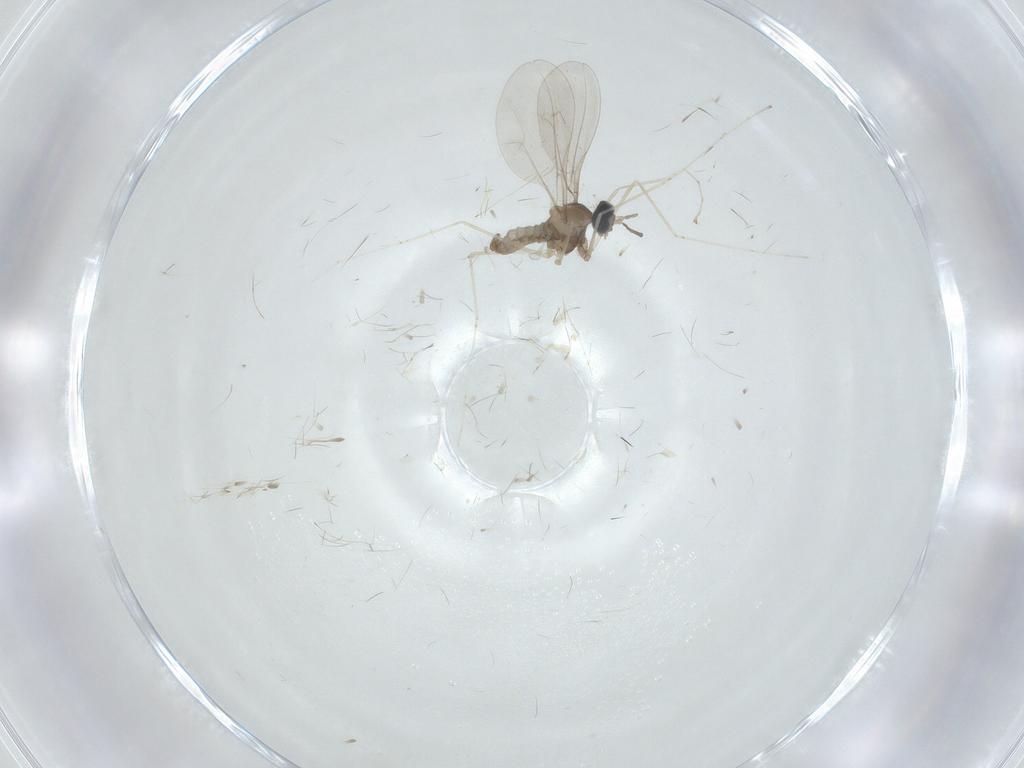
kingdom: Animalia
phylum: Arthropoda
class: Insecta
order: Diptera
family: Cecidomyiidae
